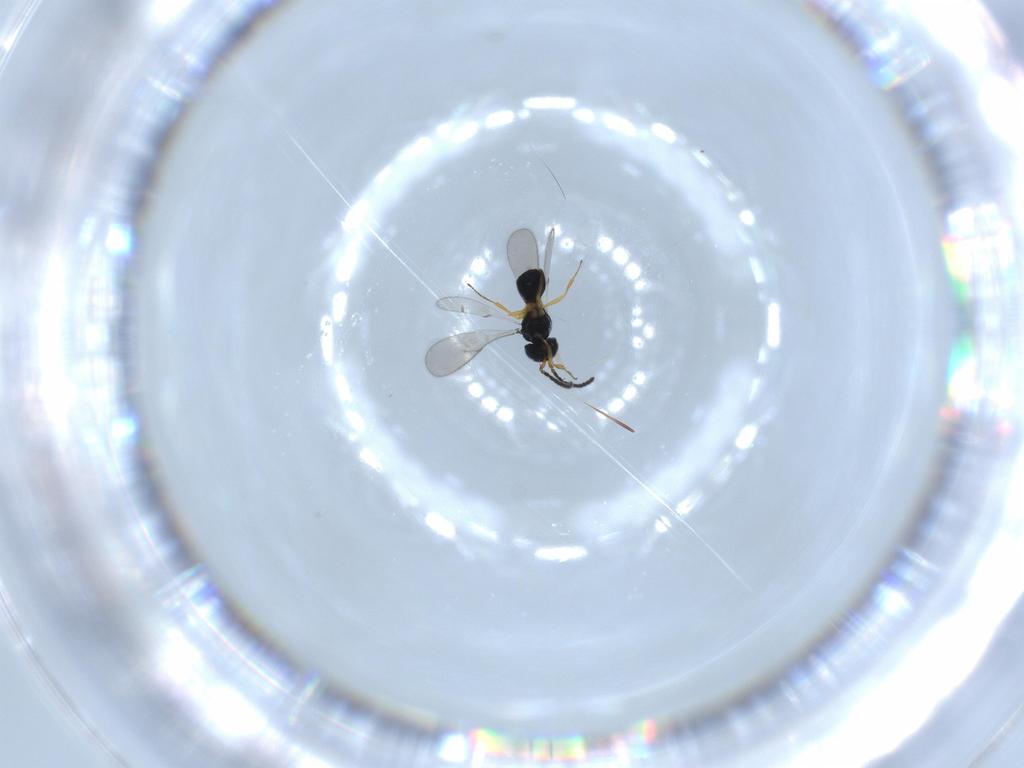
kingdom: Animalia
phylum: Arthropoda
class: Insecta
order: Hymenoptera
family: Scelionidae
